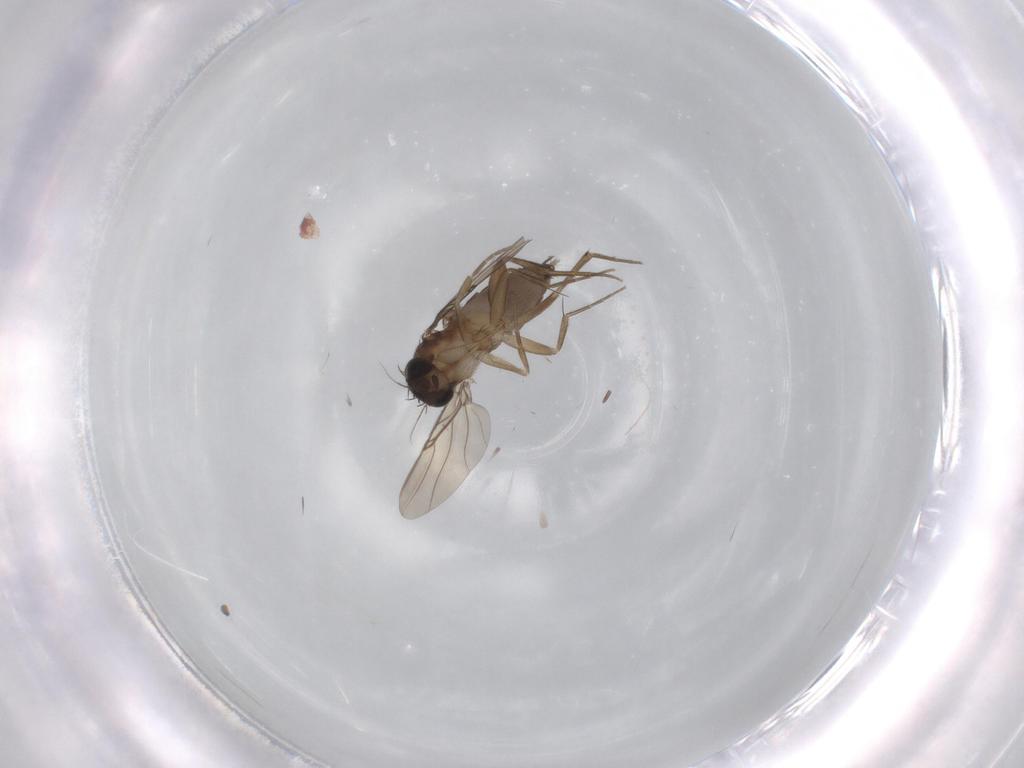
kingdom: Animalia
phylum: Arthropoda
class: Insecta
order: Diptera
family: Phoridae
